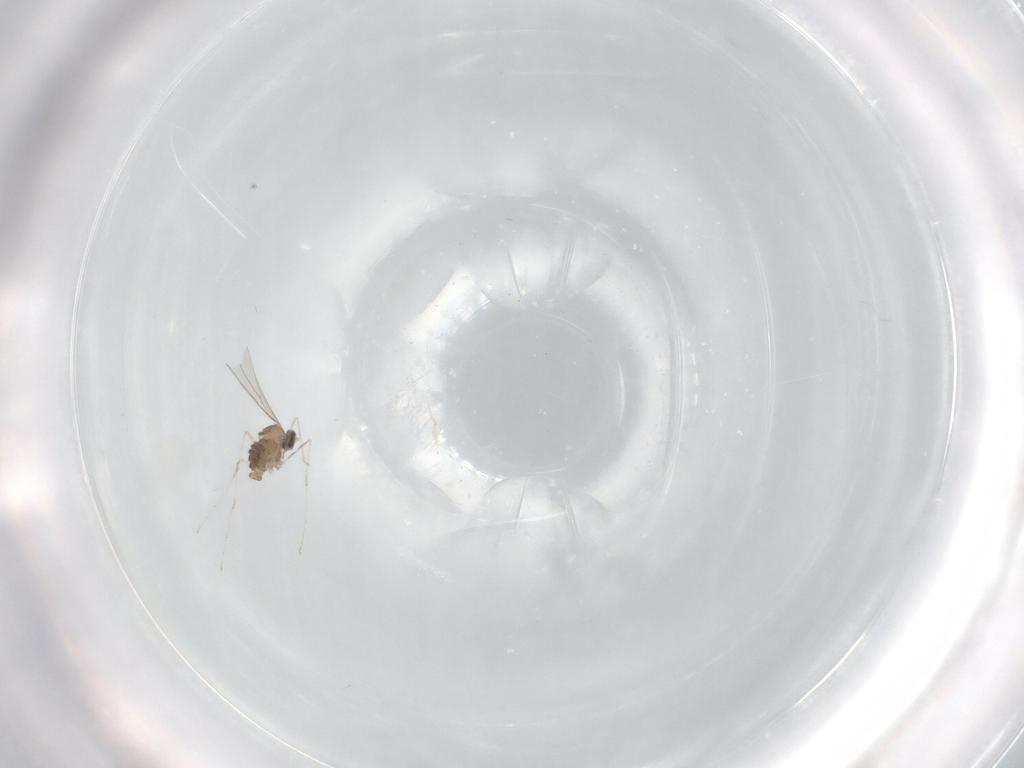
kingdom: Animalia
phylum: Arthropoda
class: Insecta
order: Diptera
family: Cecidomyiidae
